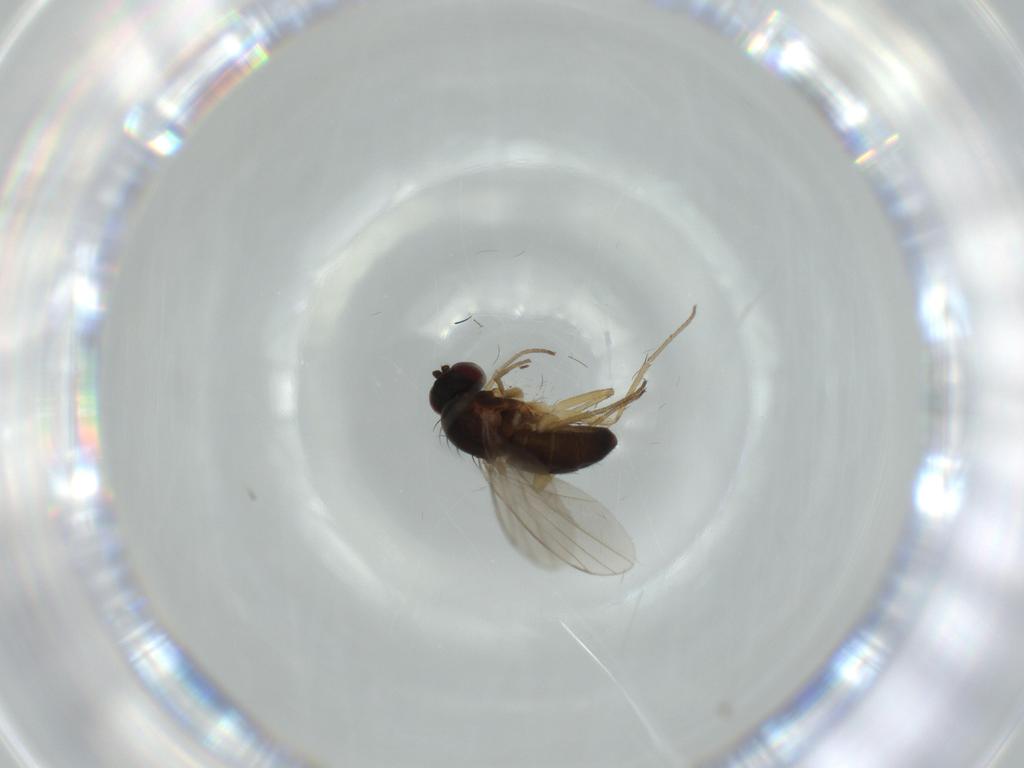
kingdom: Animalia
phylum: Arthropoda
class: Insecta
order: Diptera
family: Dolichopodidae
